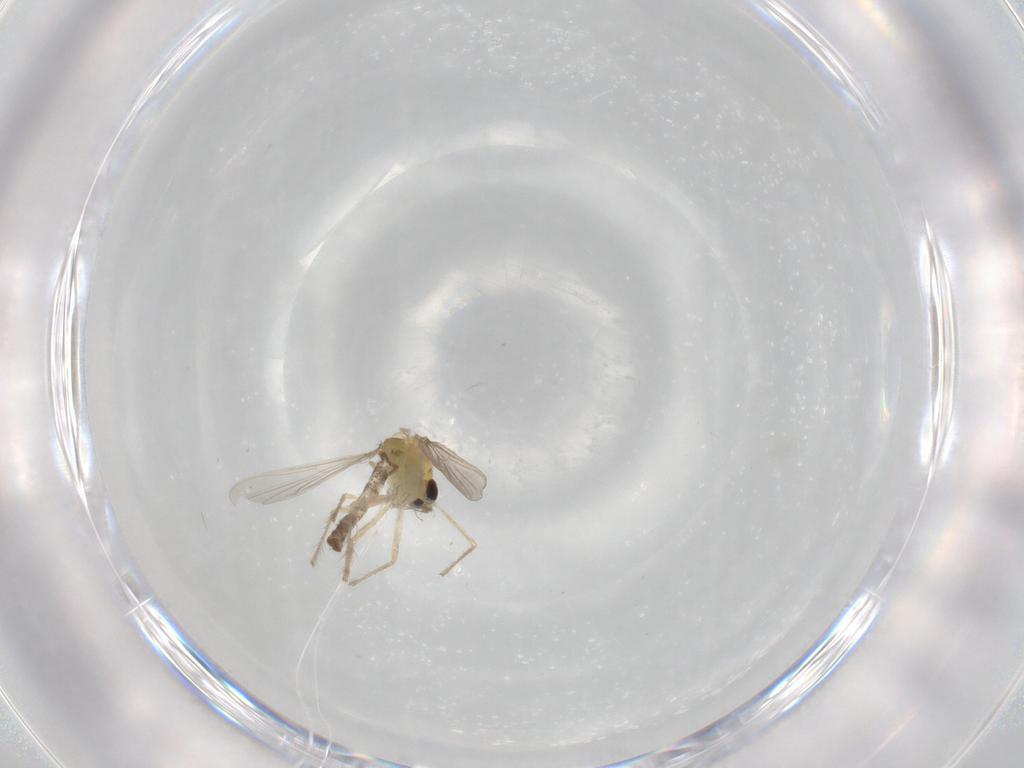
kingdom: Animalia
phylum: Arthropoda
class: Insecta
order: Diptera
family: Chironomidae
